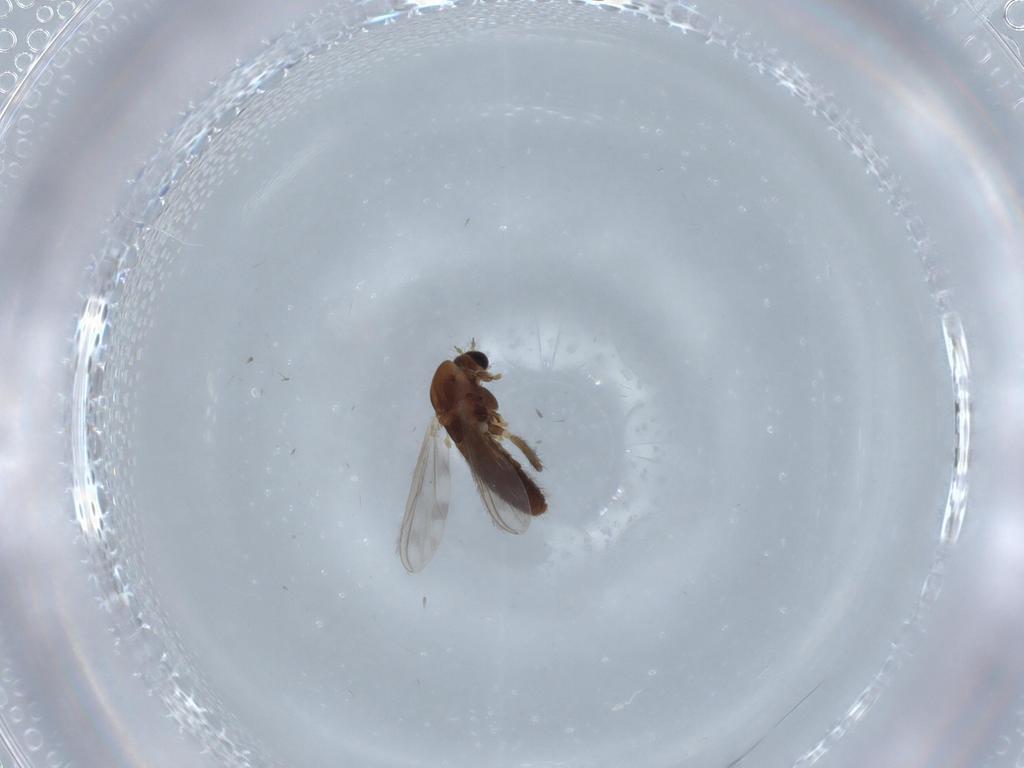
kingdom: Animalia
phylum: Arthropoda
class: Insecta
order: Diptera
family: Chironomidae
